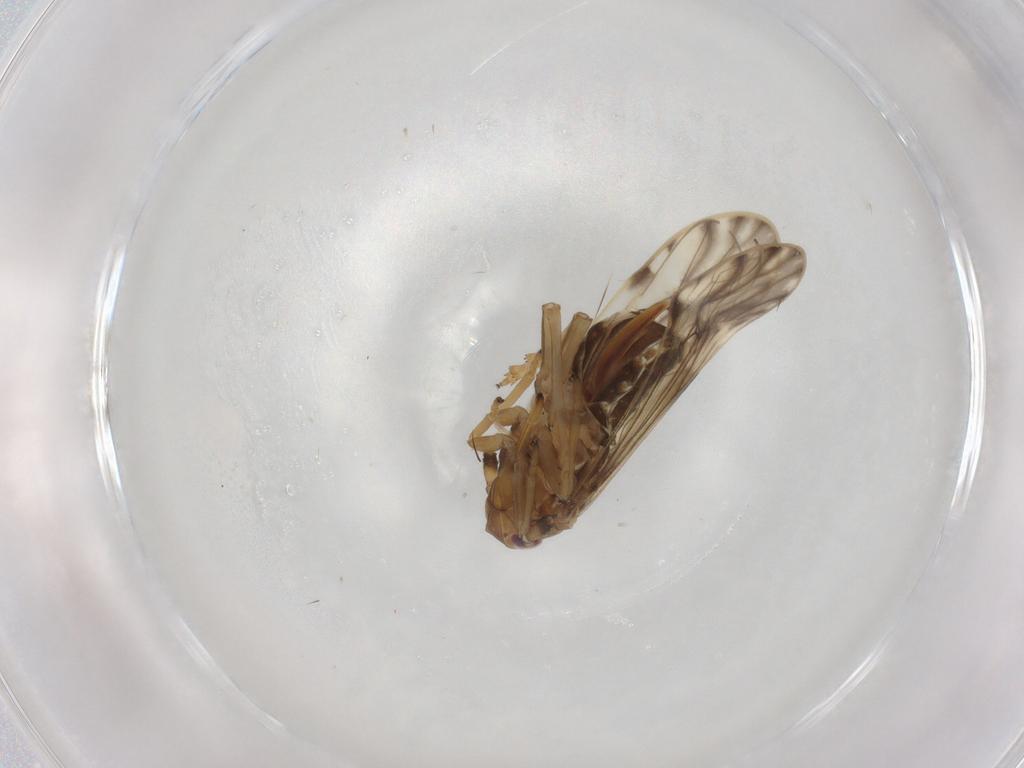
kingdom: Animalia
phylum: Arthropoda
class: Insecta
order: Hemiptera
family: Delphacidae
